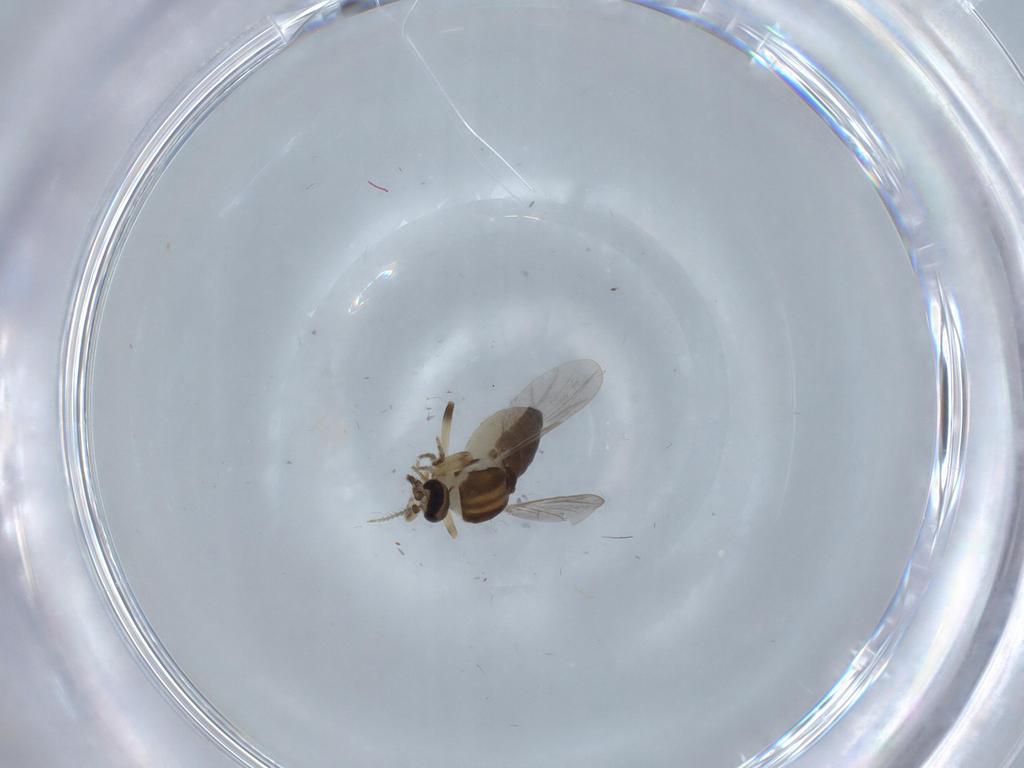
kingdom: Animalia
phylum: Arthropoda
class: Insecta
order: Diptera
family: Ceratopogonidae
